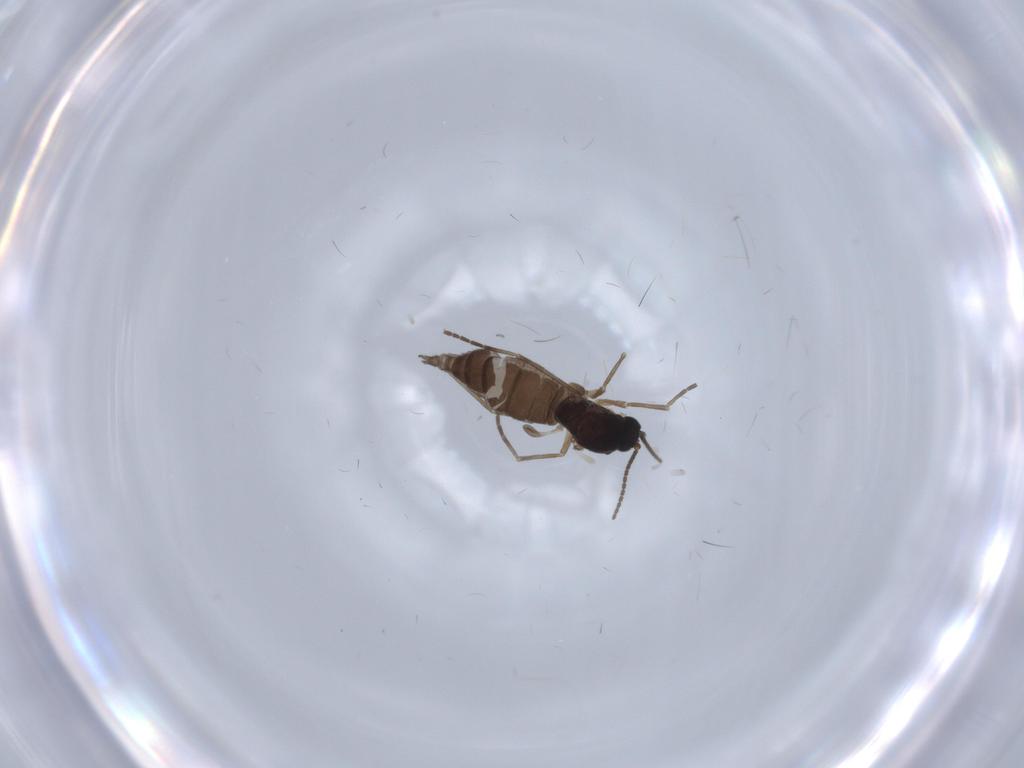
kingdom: Animalia
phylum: Arthropoda
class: Insecta
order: Diptera
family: Sciaridae
